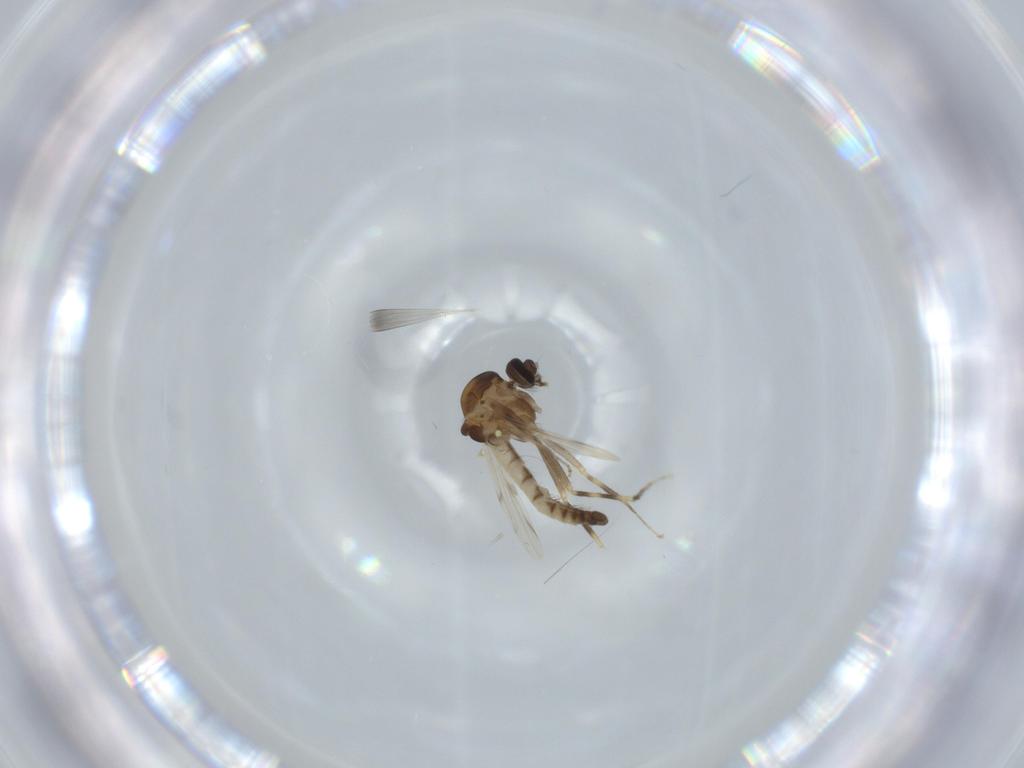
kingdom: Animalia
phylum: Arthropoda
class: Insecta
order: Diptera
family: Ceratopogonidae
